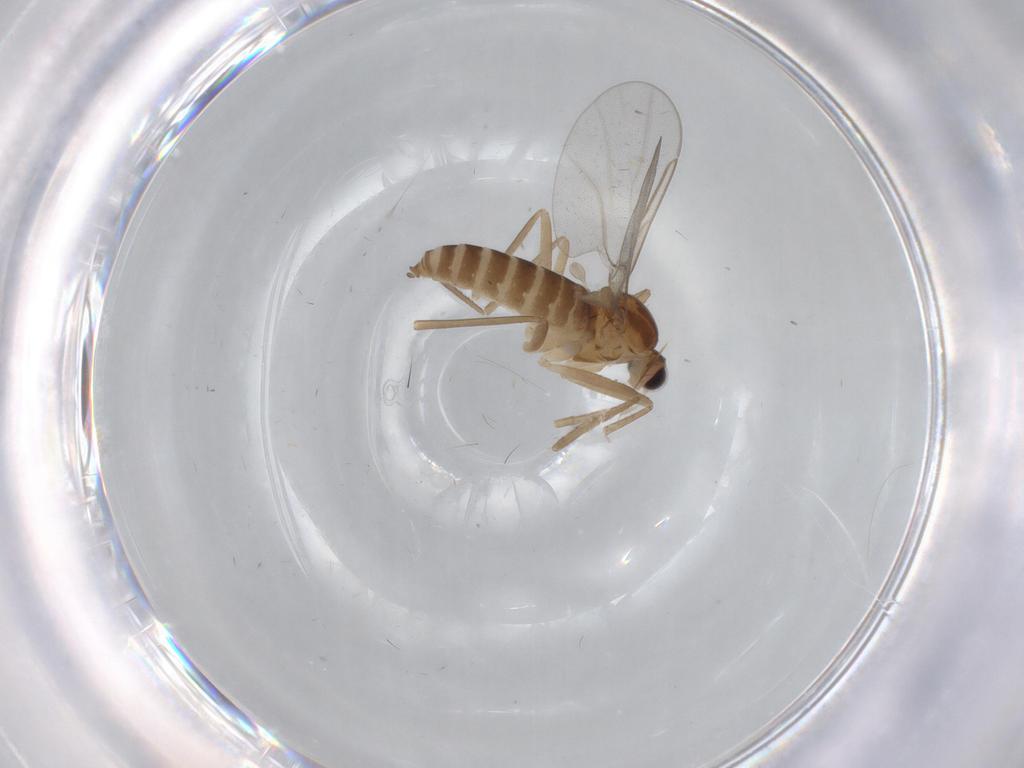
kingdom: Animalia
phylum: Arthropoda
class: Insecta
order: Diptera
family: Cecidomyiidae
